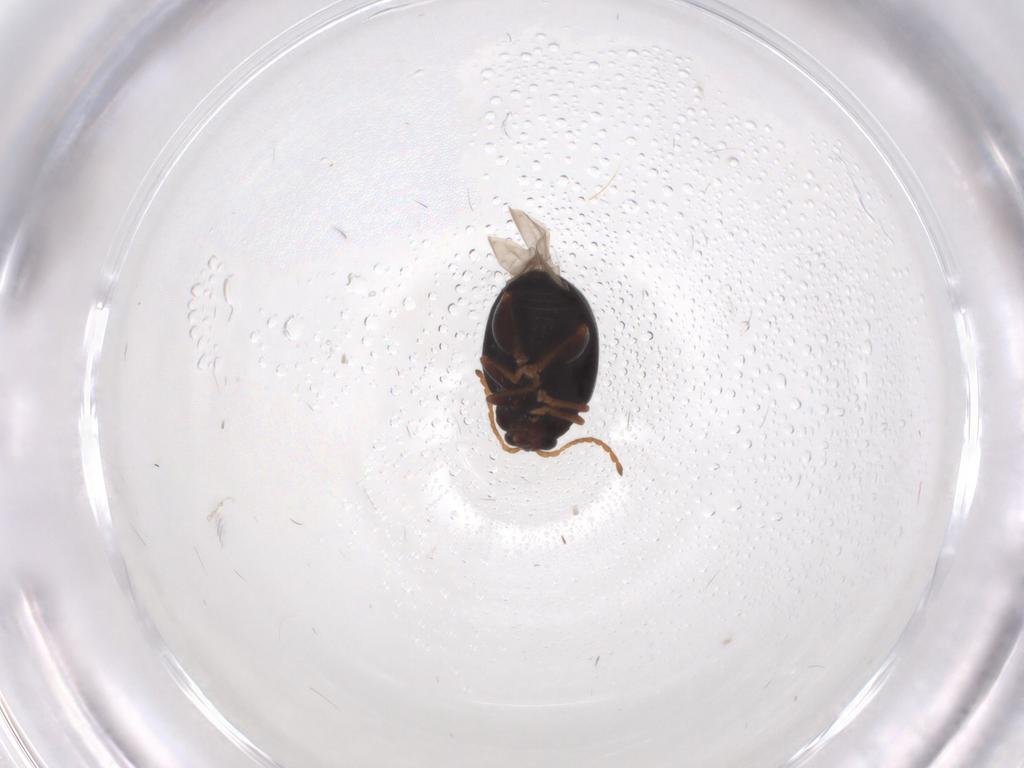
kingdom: Animalia
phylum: Arthropoda
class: Insecta
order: Coleoptera
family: Chrysomelidae
